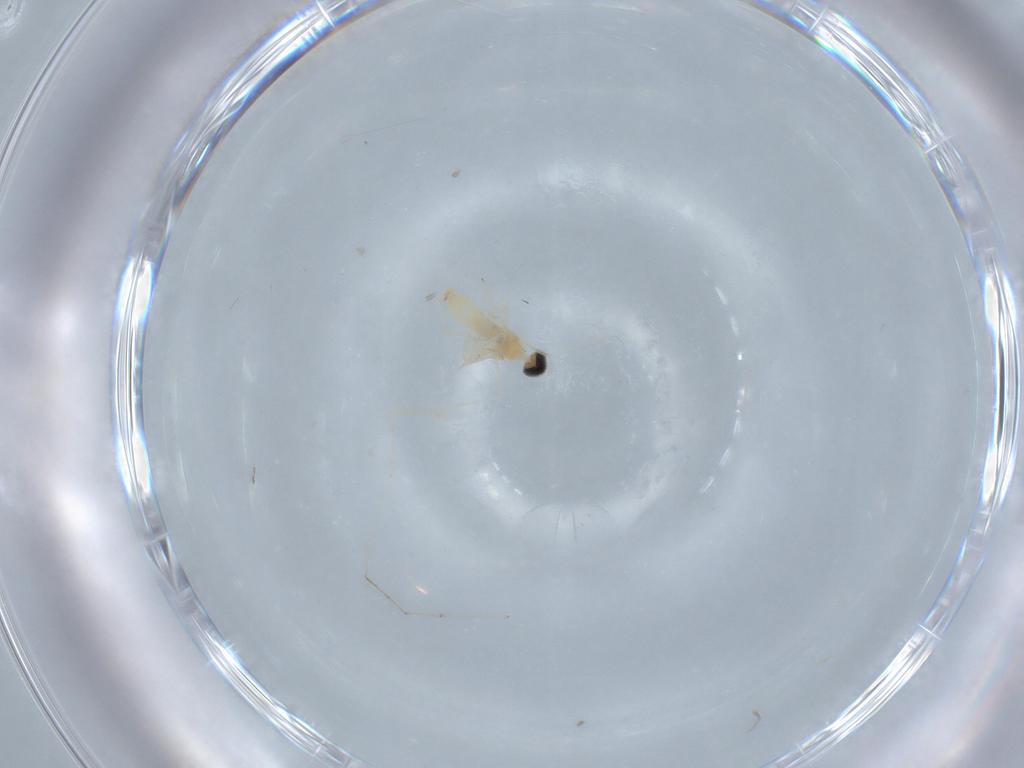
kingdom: Animalia
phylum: Arthropoda
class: Insecta
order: Diptera
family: Cecidomyiidae
